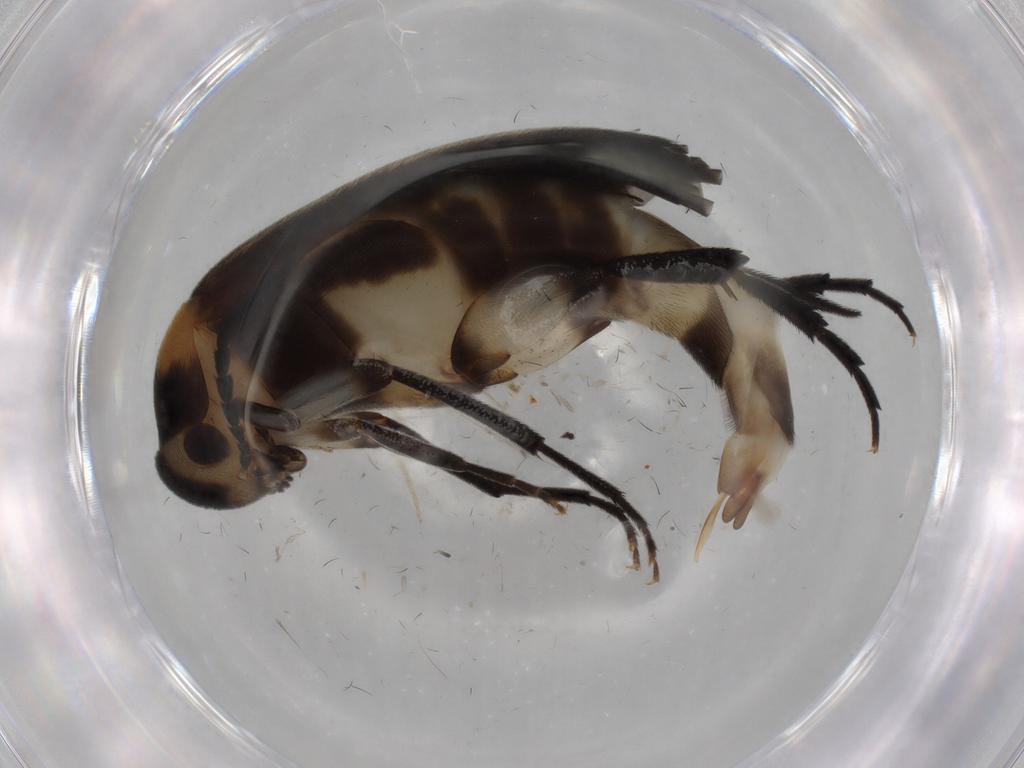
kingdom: Animalia
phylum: Arthropoda
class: Insecta
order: Coleoptera
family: Mordellidae
